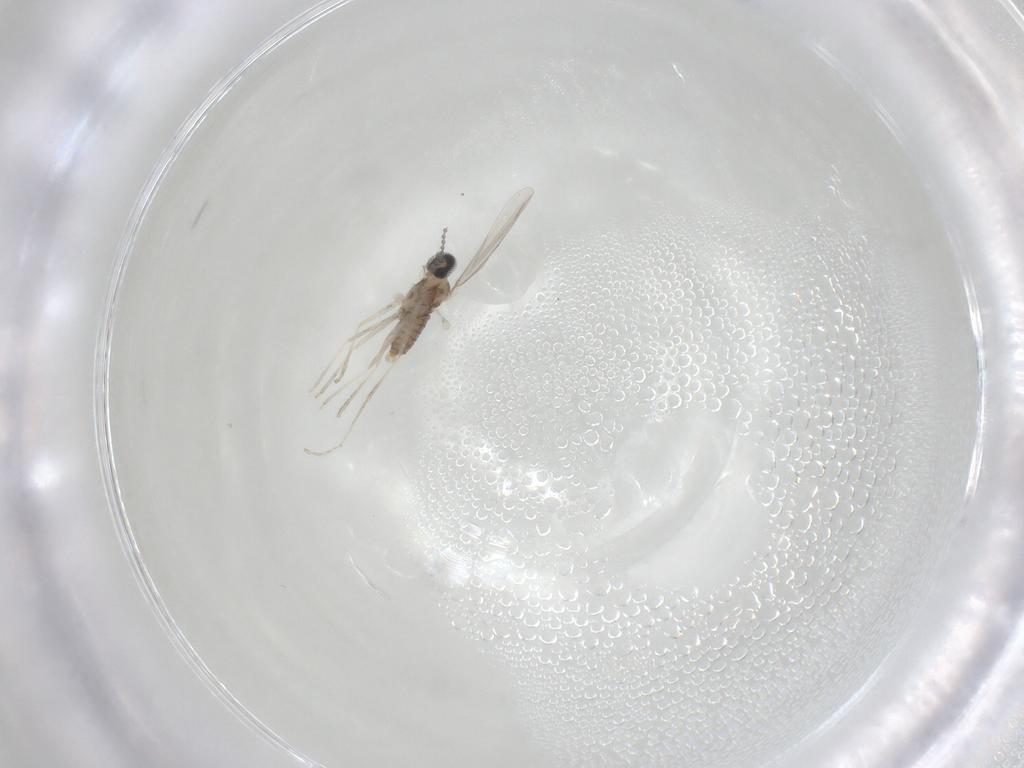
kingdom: Animalia
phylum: Arthropoda
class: Insecta
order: Diptera
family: Cecidomyiidae
